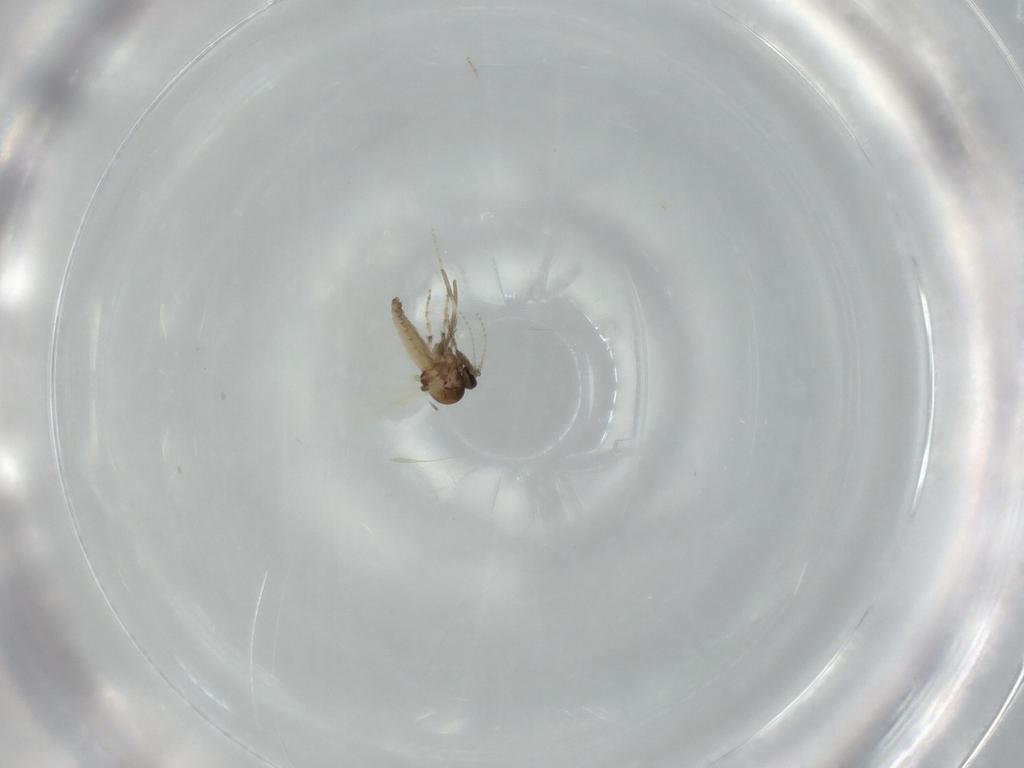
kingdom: Animalia
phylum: Arthropoda
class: Insecta
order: Diptera
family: Ceratopogonidae
